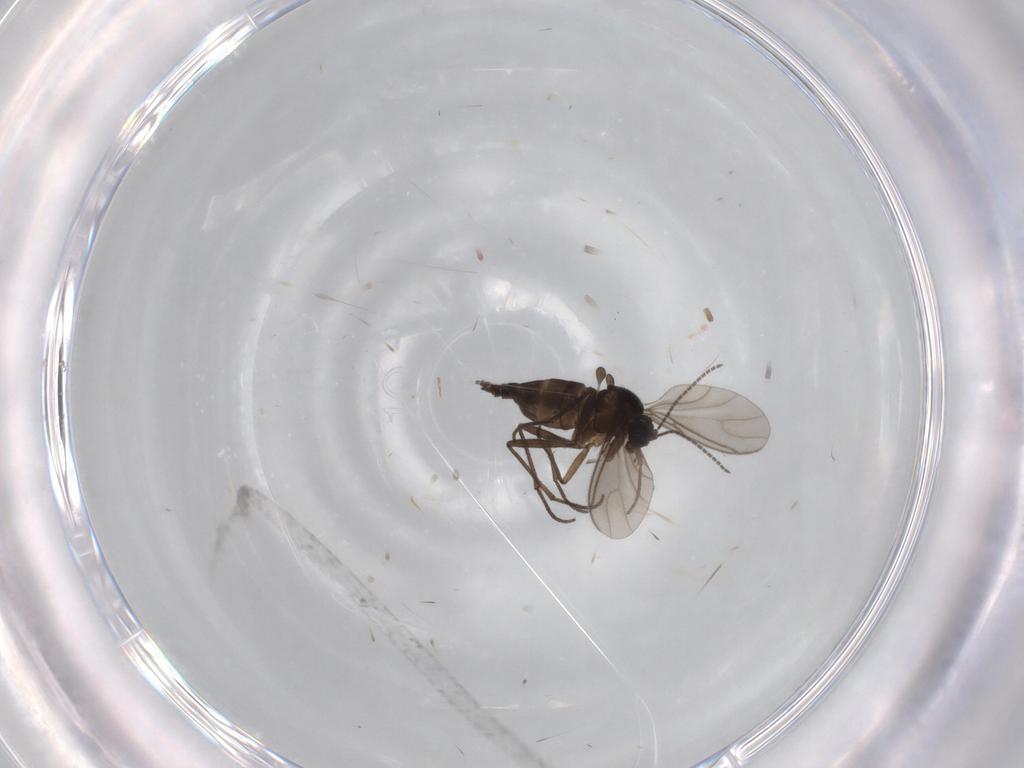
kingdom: Animalia
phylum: Arthropoda
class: Insecta
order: Diptera
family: Sciaridae
